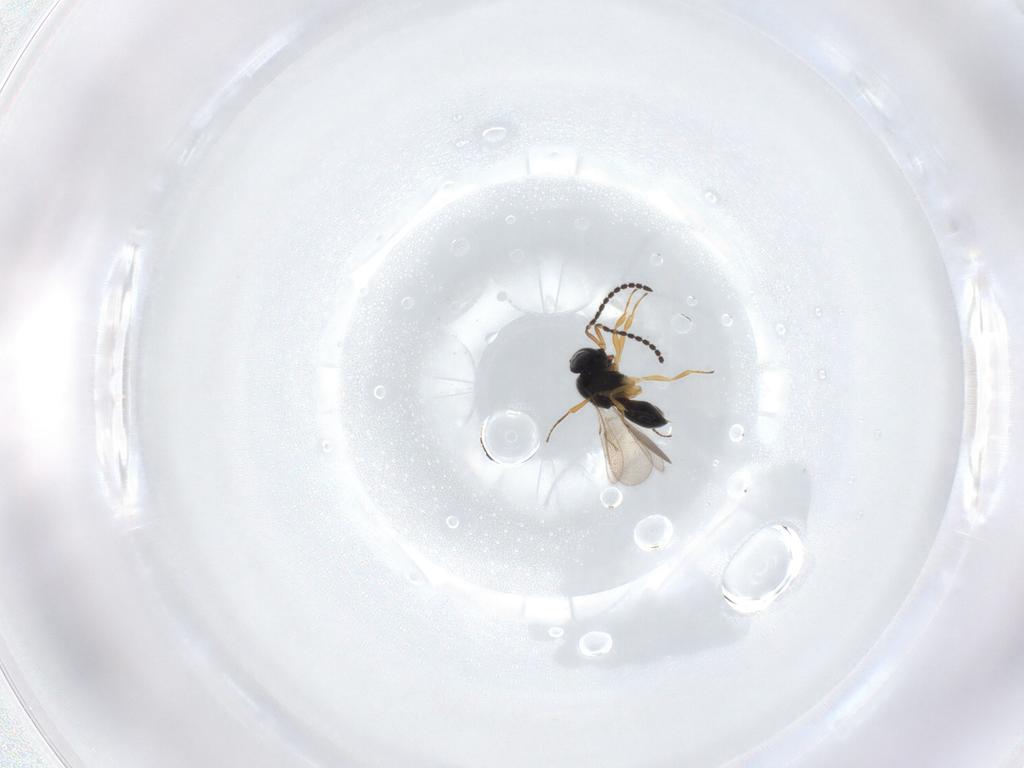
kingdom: Animalia
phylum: Arthropoda
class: Insecta
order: Hymenoptera
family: Scelionidae
